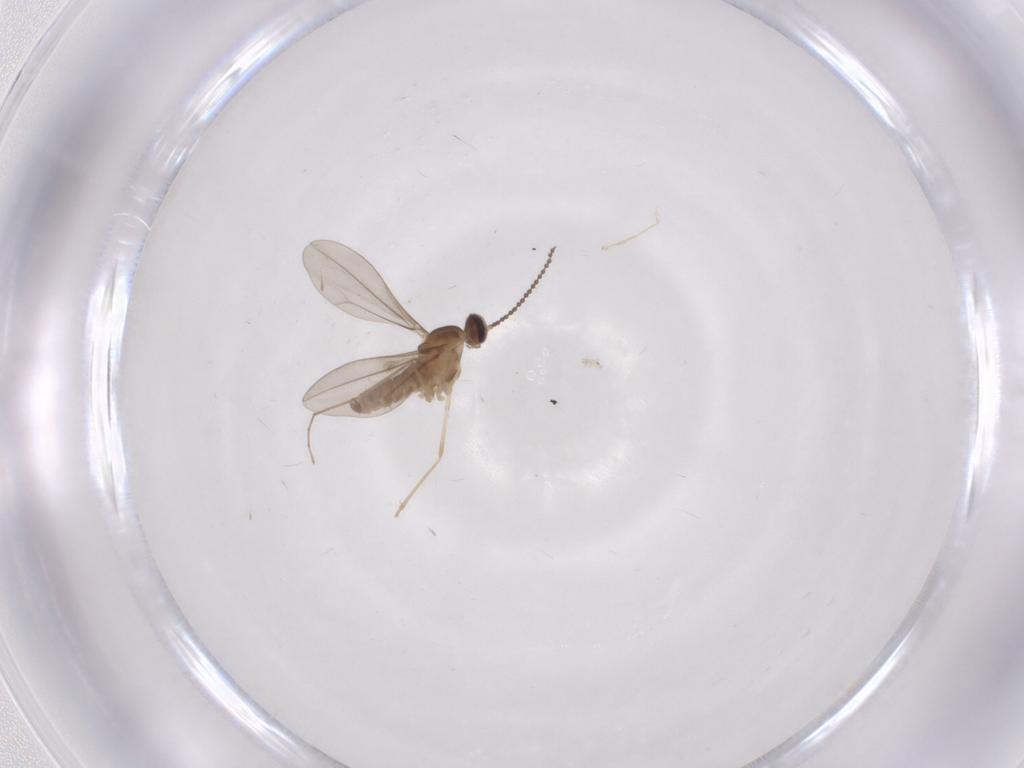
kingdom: Animalia
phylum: Arthropoda
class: Insecta
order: Diptera
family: Cecidomyiidae
